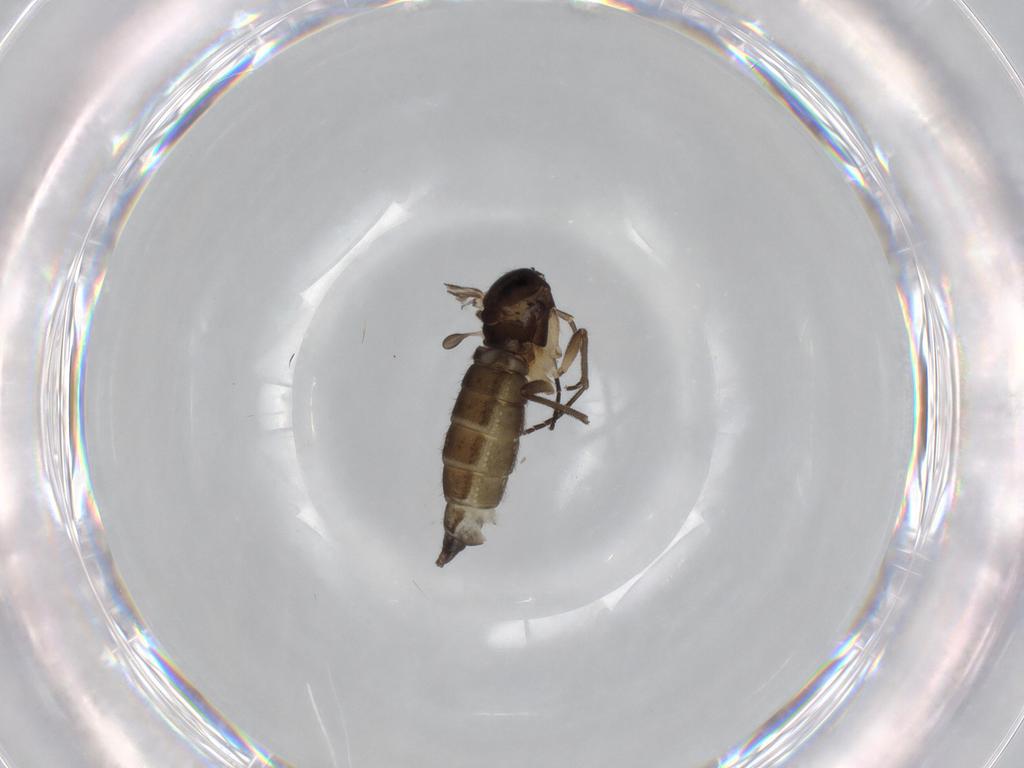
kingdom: Animalia
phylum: Arthropoda
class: Insecta
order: Diptera
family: Sciaridae
